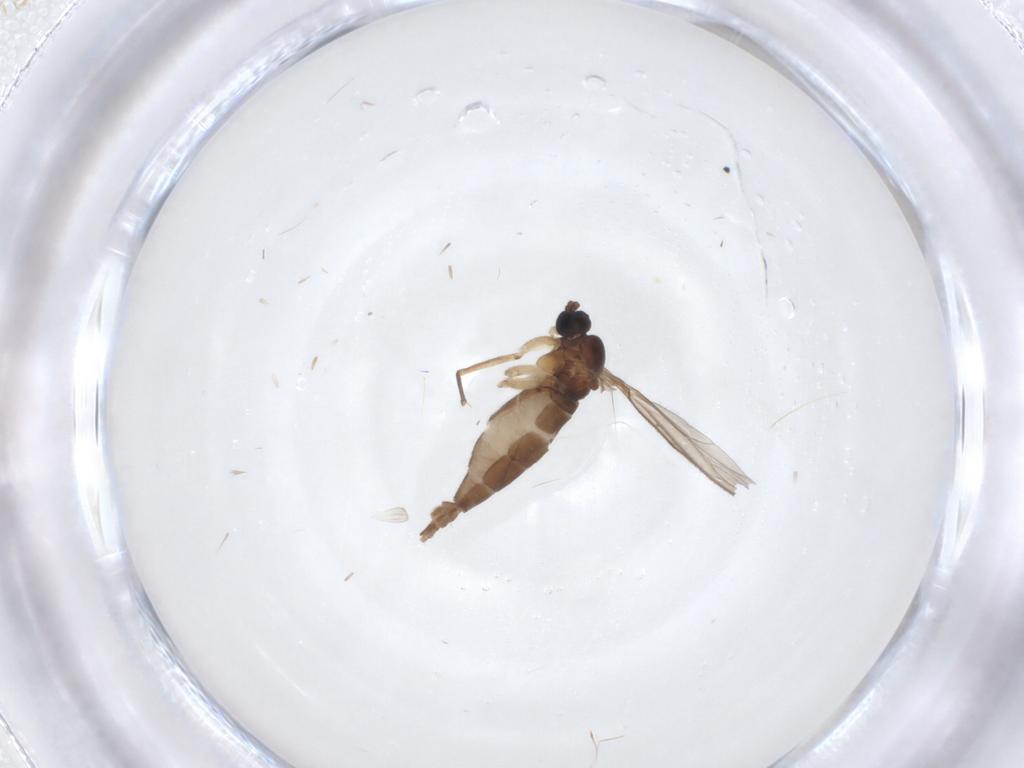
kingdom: Animalia
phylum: Arthropoda
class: Insecta
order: Diptera
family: Sciaridae
